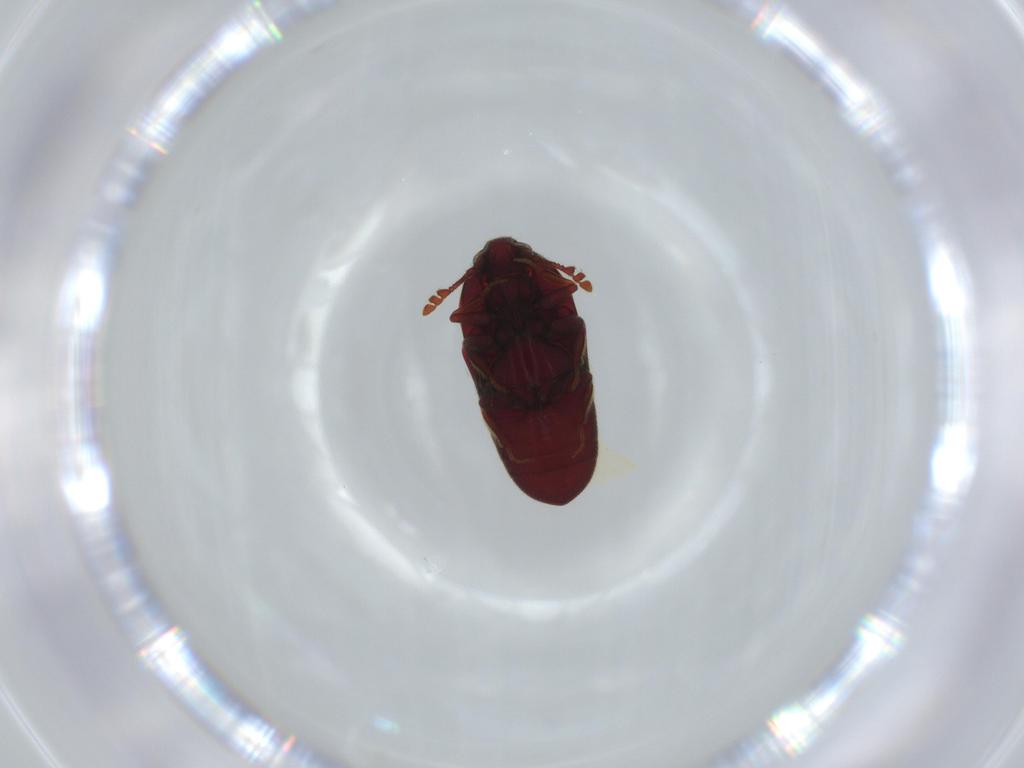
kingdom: Animalia
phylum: Arthropoda
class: Insecta
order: Coleoptera
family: Throscidae
